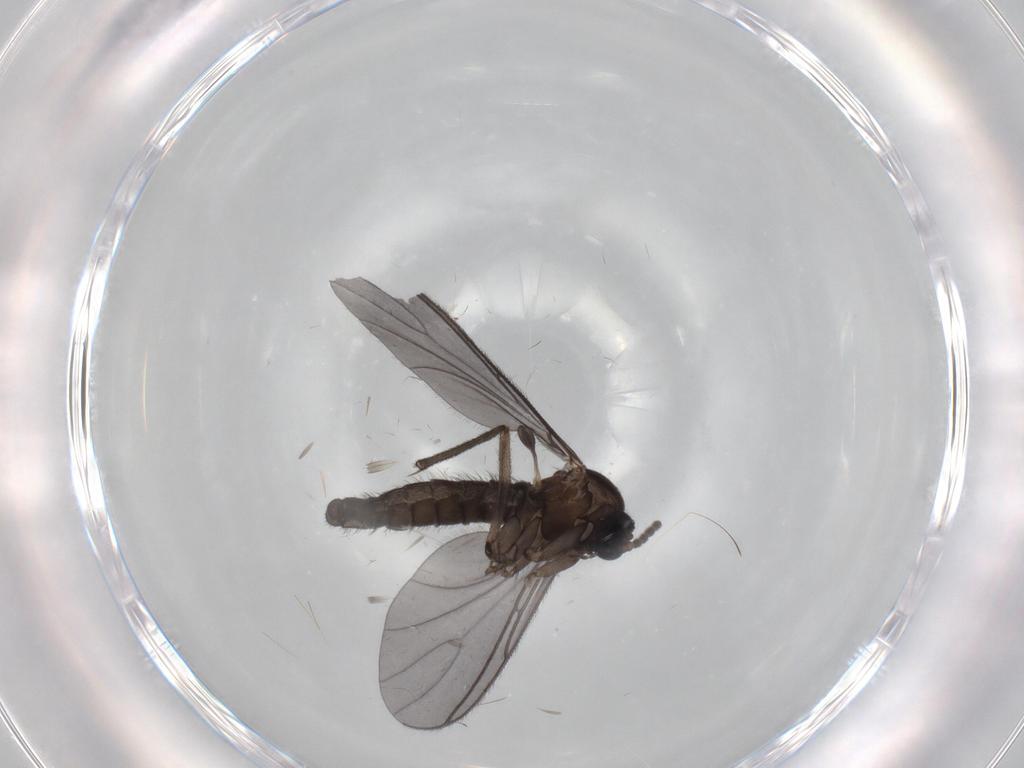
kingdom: Animalia
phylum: Arthropoda
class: Insecta
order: Diptera
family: Sciaridae
